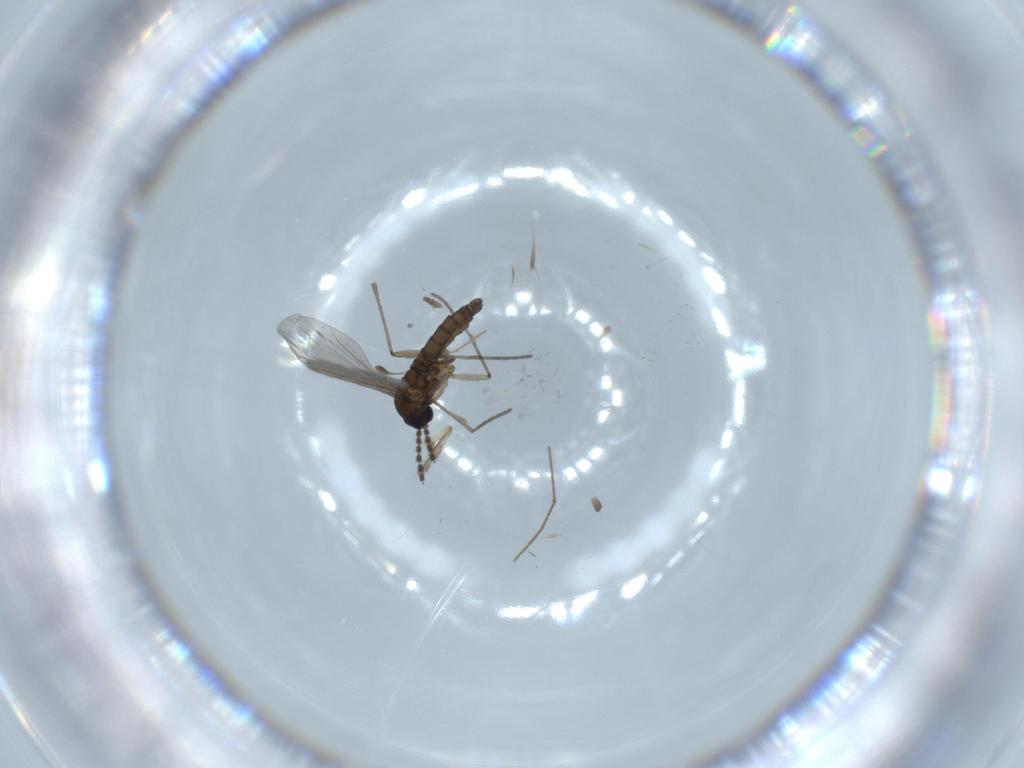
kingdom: Animalia
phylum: Arthropoda
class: Insecta
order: Diptera
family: Psychodidae
